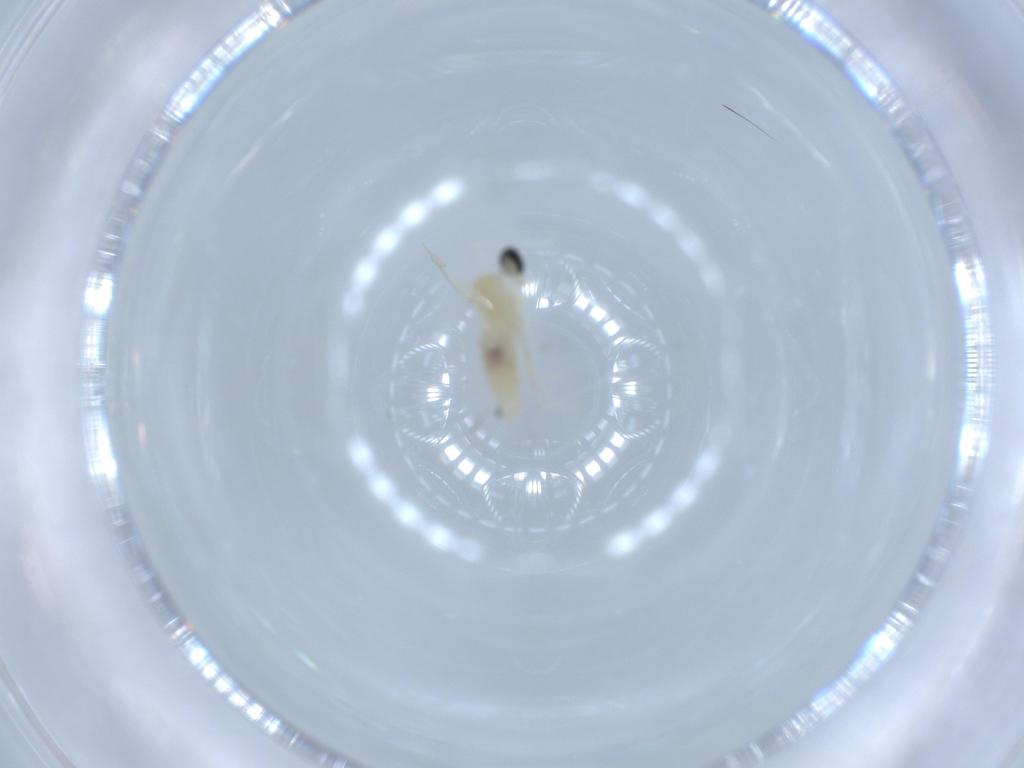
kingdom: Animalia
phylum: Arthropoda
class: Insecta
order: Diptera
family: Cecidomyiidae
